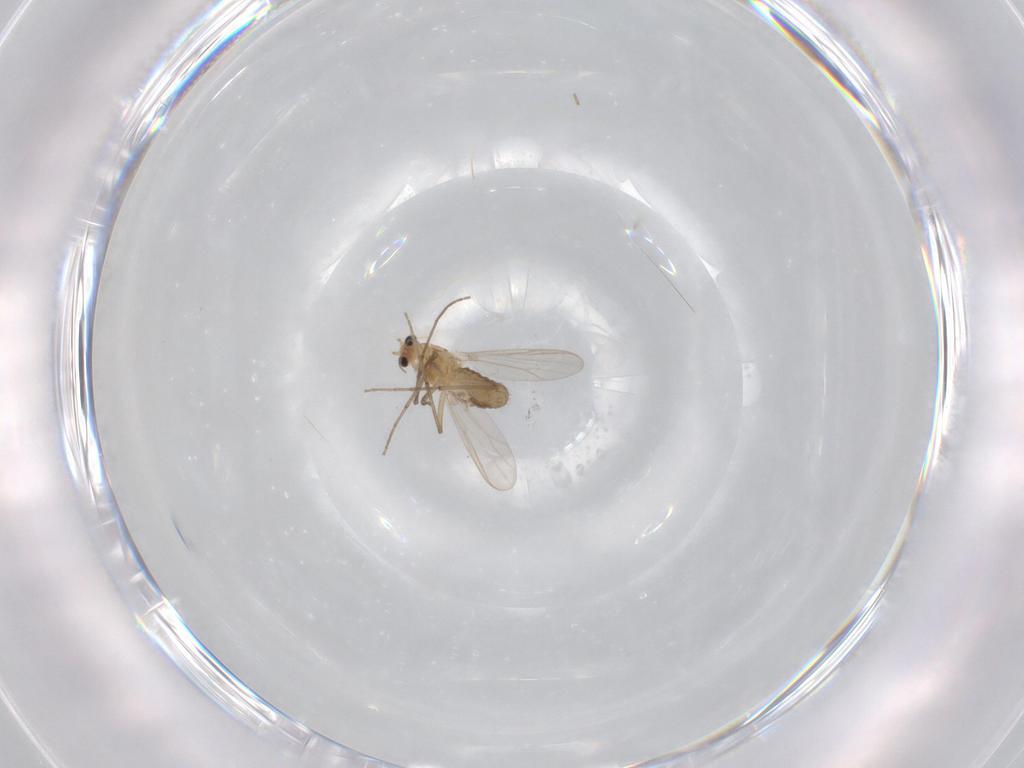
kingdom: Animalia
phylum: Arthropoda
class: Insecta
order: Diptera
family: Chironomidae
